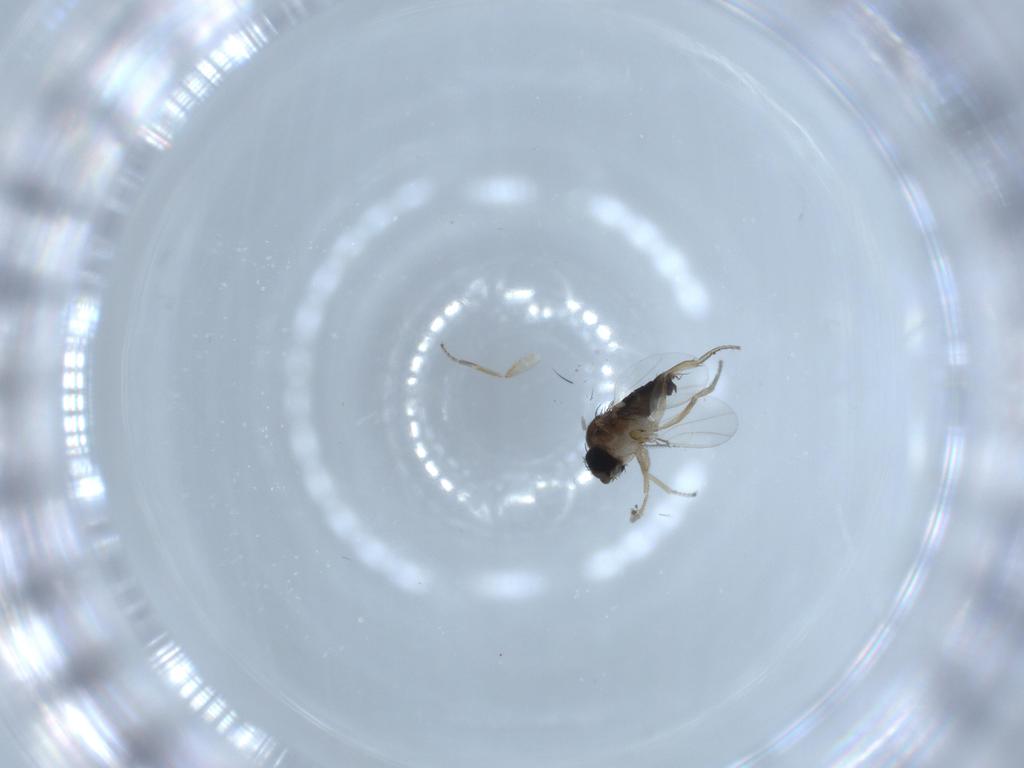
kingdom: Animalia
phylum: Arthropoda
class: Insecta
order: Diptera
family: Phoridae
